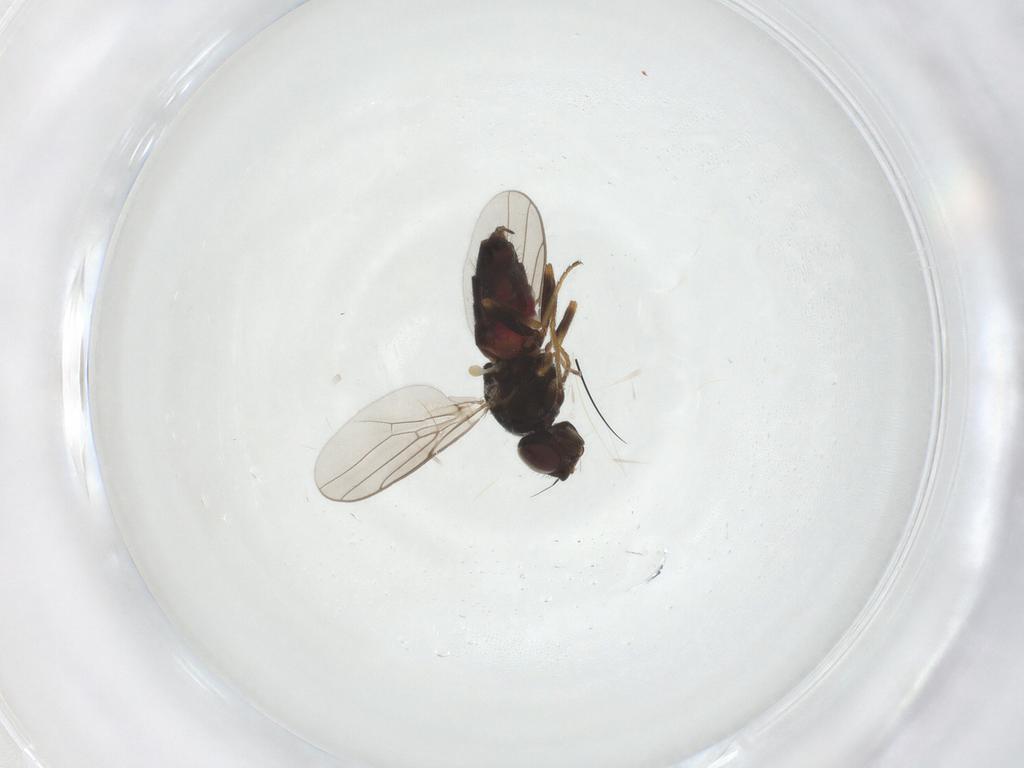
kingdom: Animalia
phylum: Arthropoda
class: Insecta
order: Diptera
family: Chloropidae
